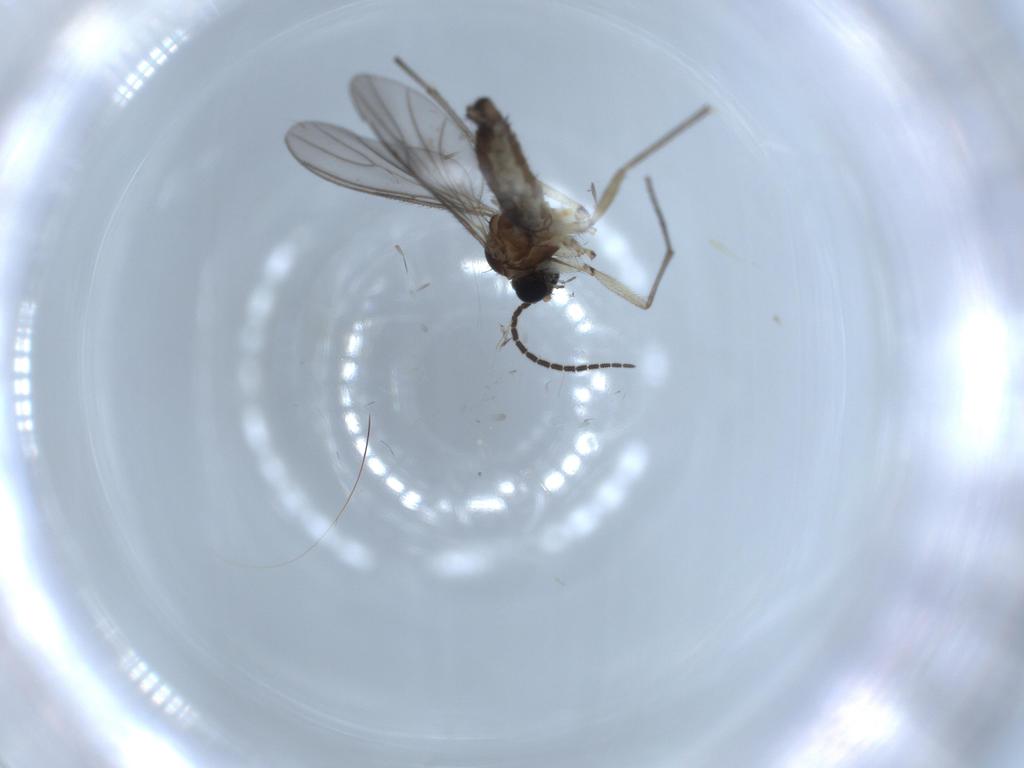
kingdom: Animalia
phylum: Arthropoda
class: Insecta
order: Diptera
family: Sciaridae
